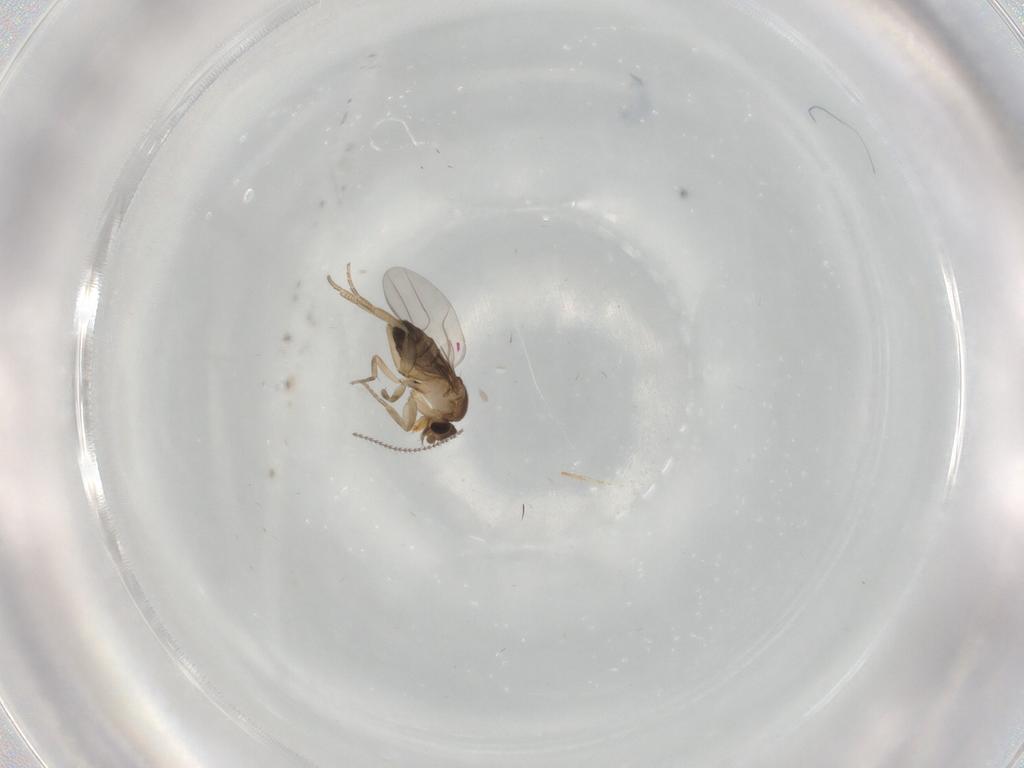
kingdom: Animalia
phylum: Arthropoda
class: Insecta
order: Diptera
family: Phoridae
